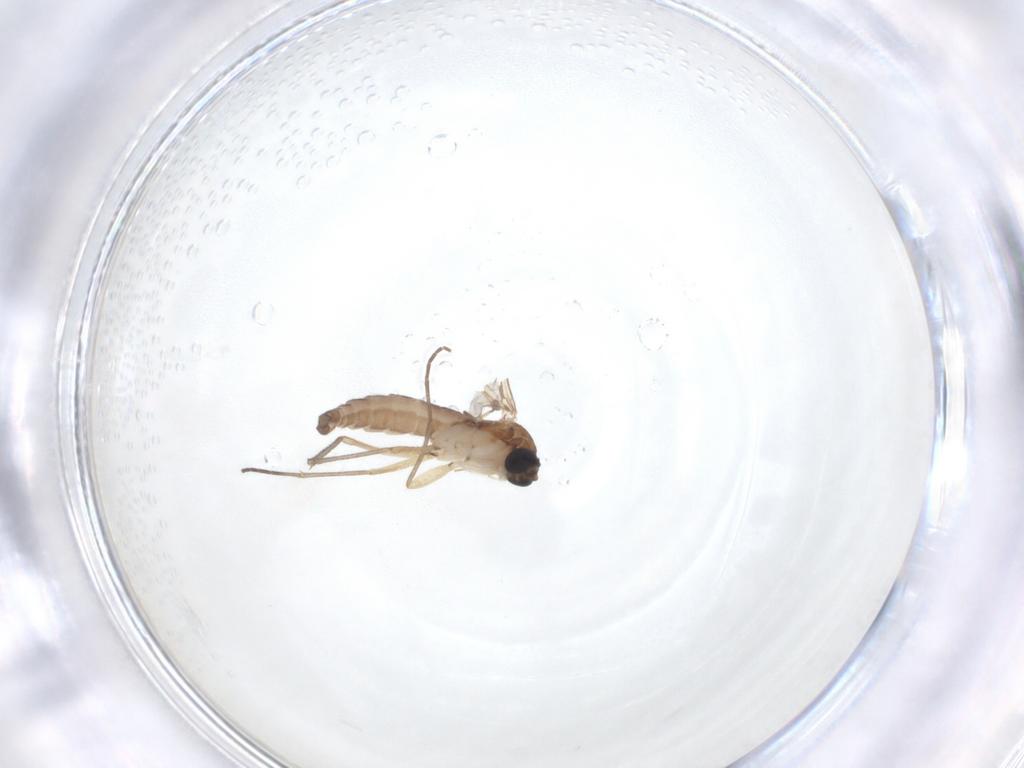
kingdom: Animalia
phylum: Arthropoda
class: Insecta
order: Diptera
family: Sciaridae
